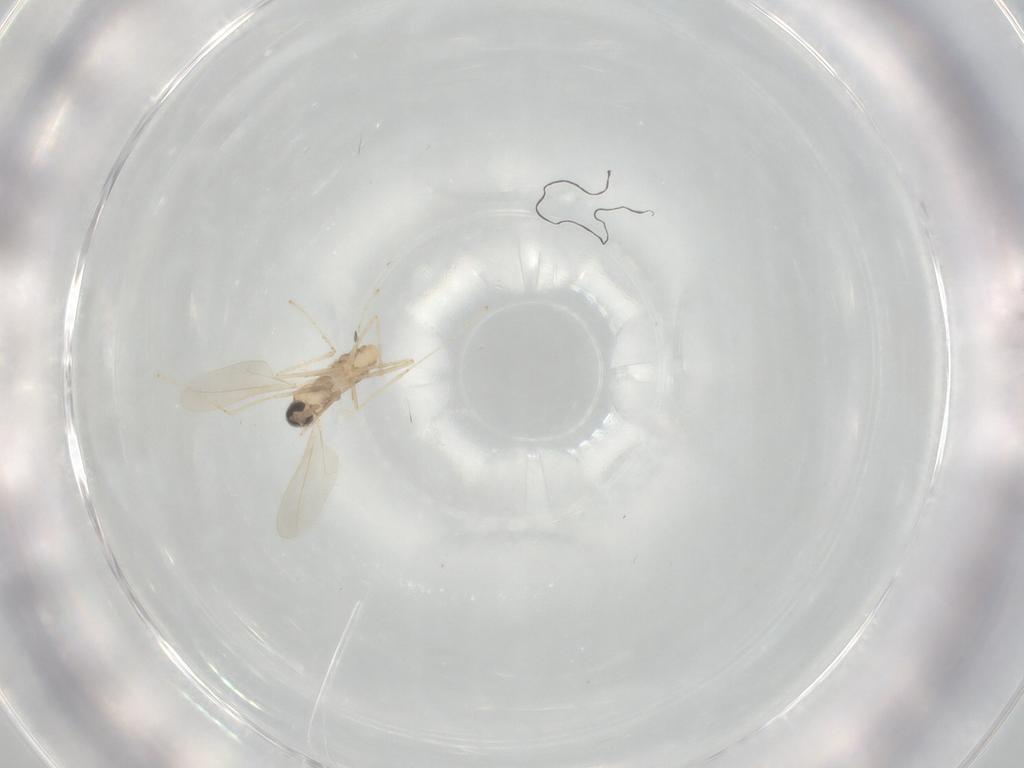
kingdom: Animalia
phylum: Arthropoda
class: Insecta
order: Diptera
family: Cecidomyiidae
